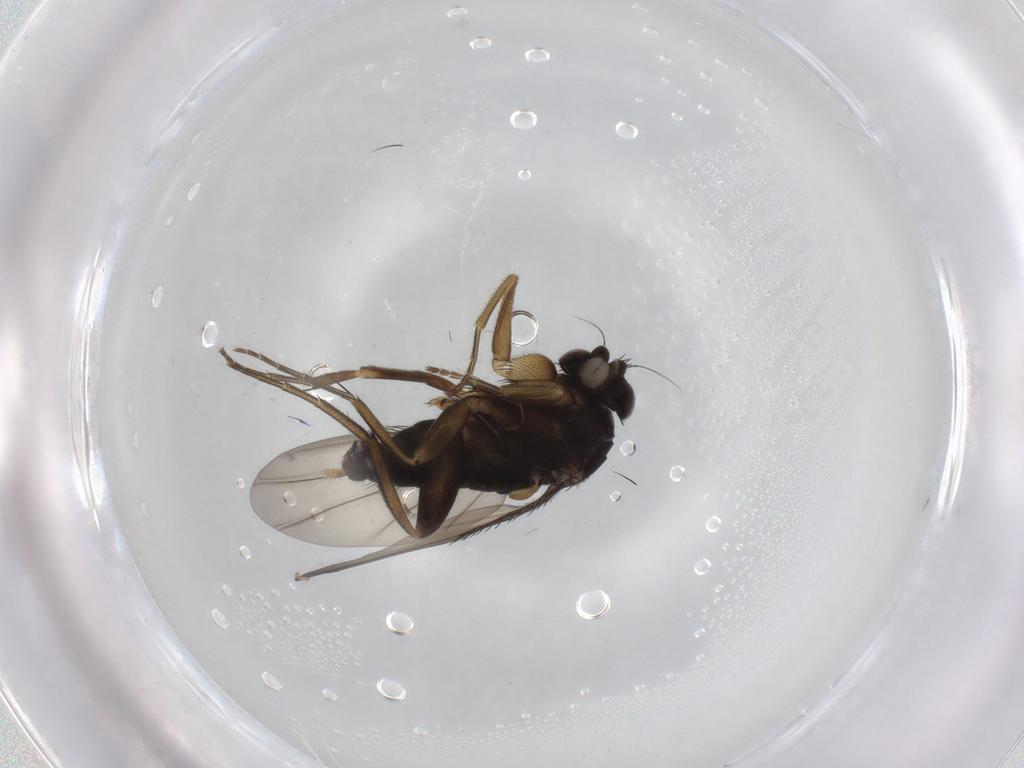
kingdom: Animalia
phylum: Arthropoda
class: Insecta
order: Diptera
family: Phoridae
